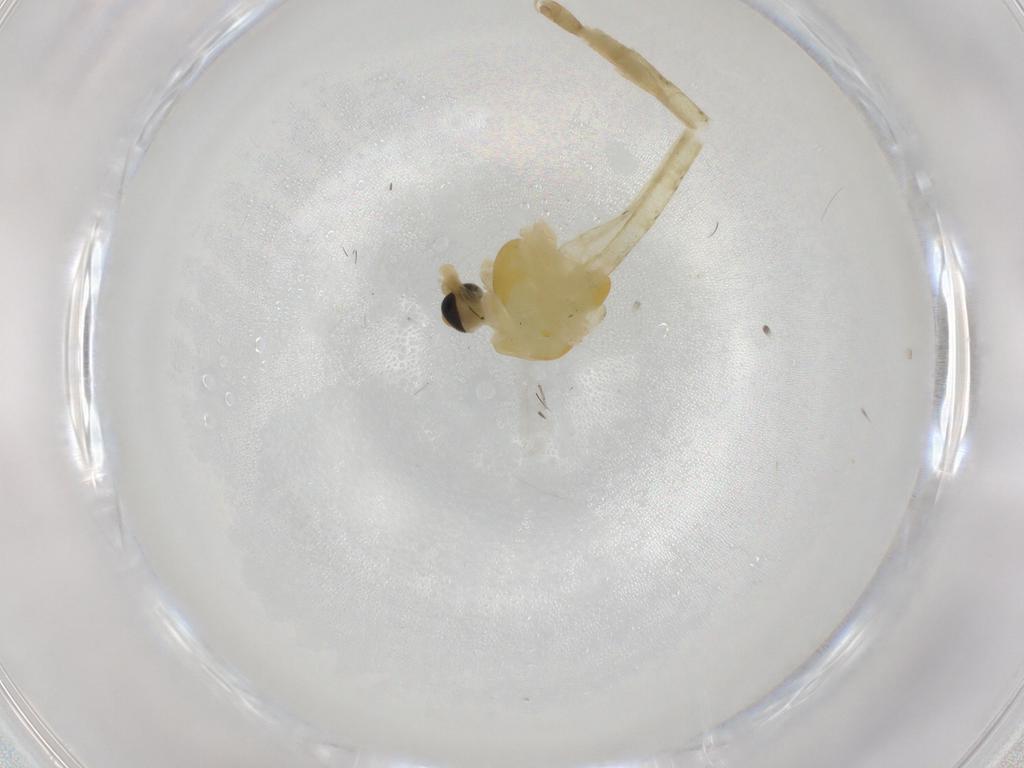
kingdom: Animalia
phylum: Arthropoda
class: Insecta
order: Diptera
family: Chironomidae
